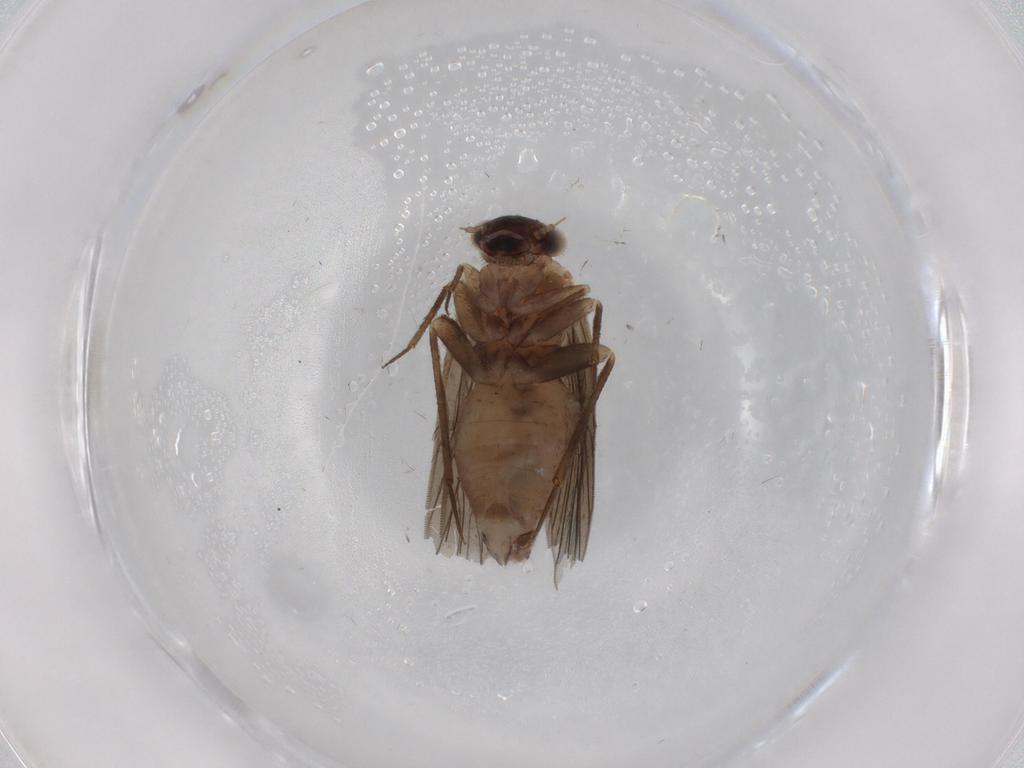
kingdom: Animalia
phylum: Arthropoda
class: Insecta
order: Psocodea
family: Lepidopsocidae
